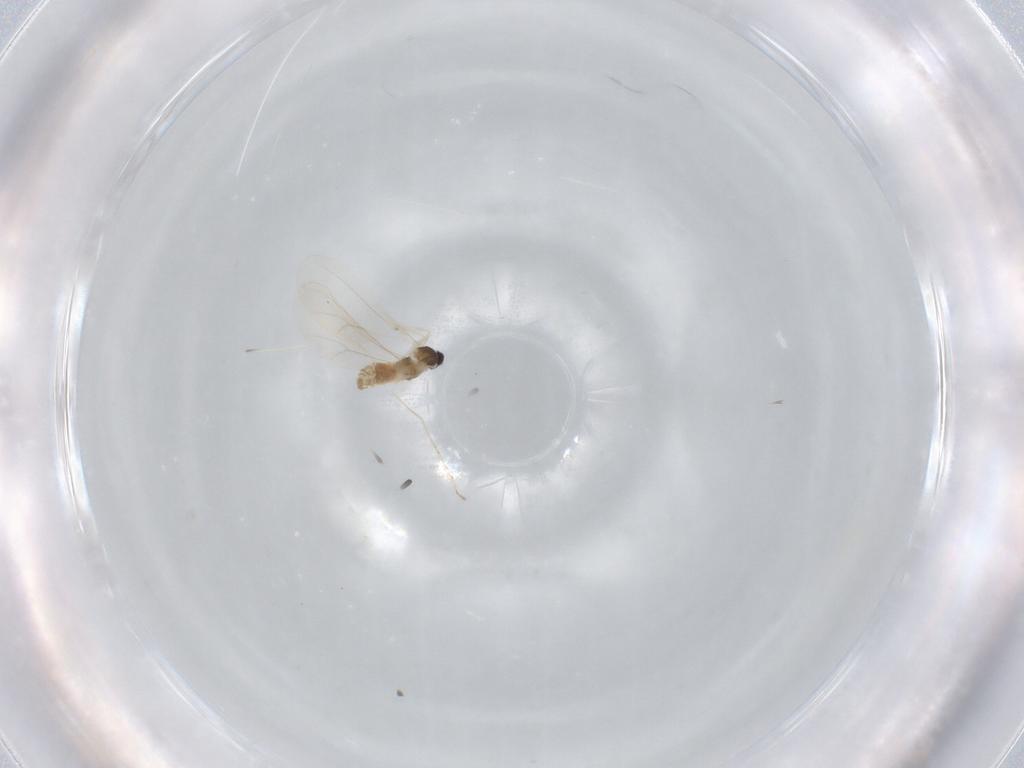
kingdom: Animalia
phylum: Arthropoda
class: Insecta
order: Diptera
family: Cecidomyiidae
